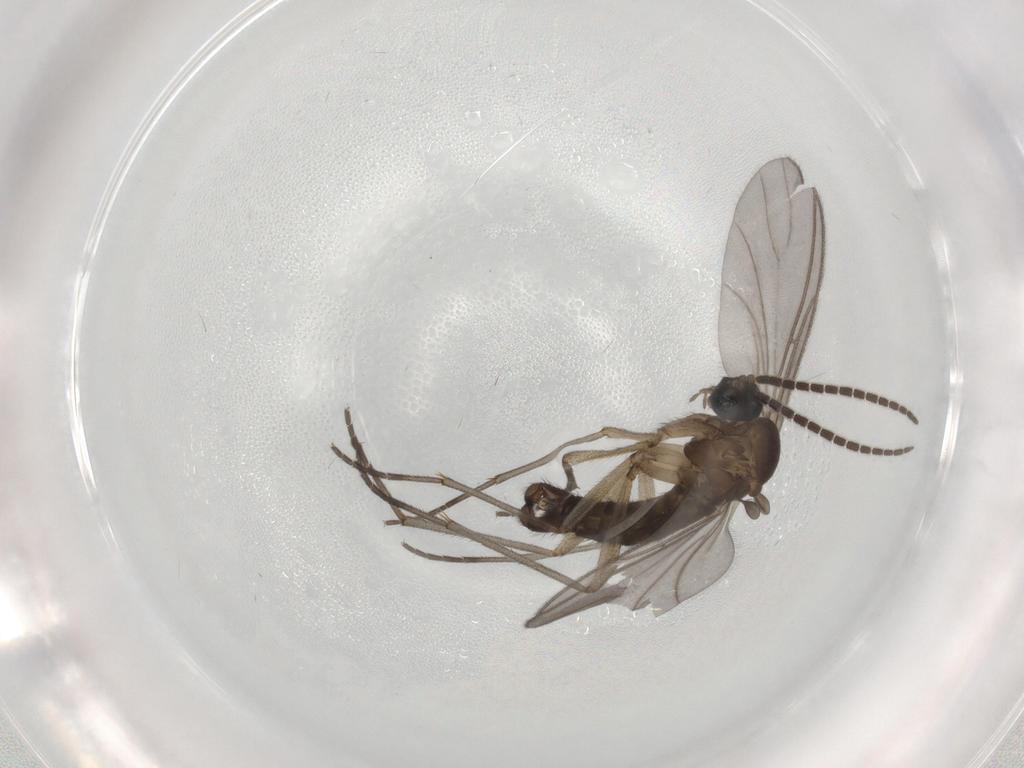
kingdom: Animalia
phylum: Arthropoda
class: Insecta
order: Diptera
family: Sciaridae
